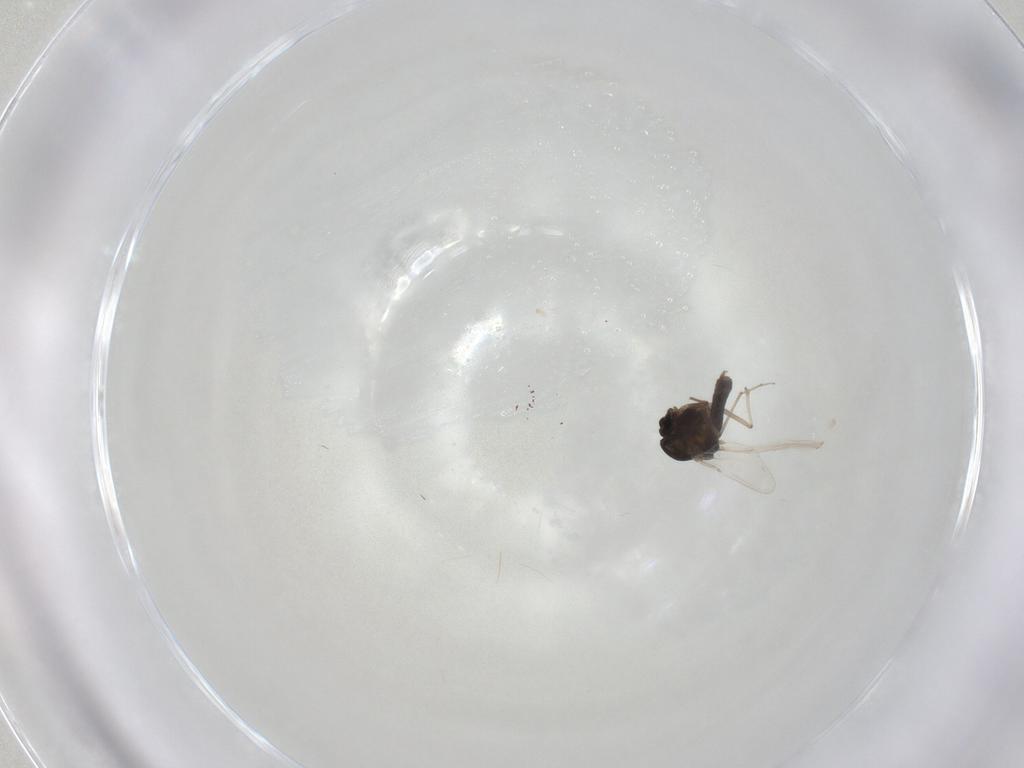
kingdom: Animalia
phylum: Arthropoda
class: Insecta
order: Diptera
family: Chironomidae
